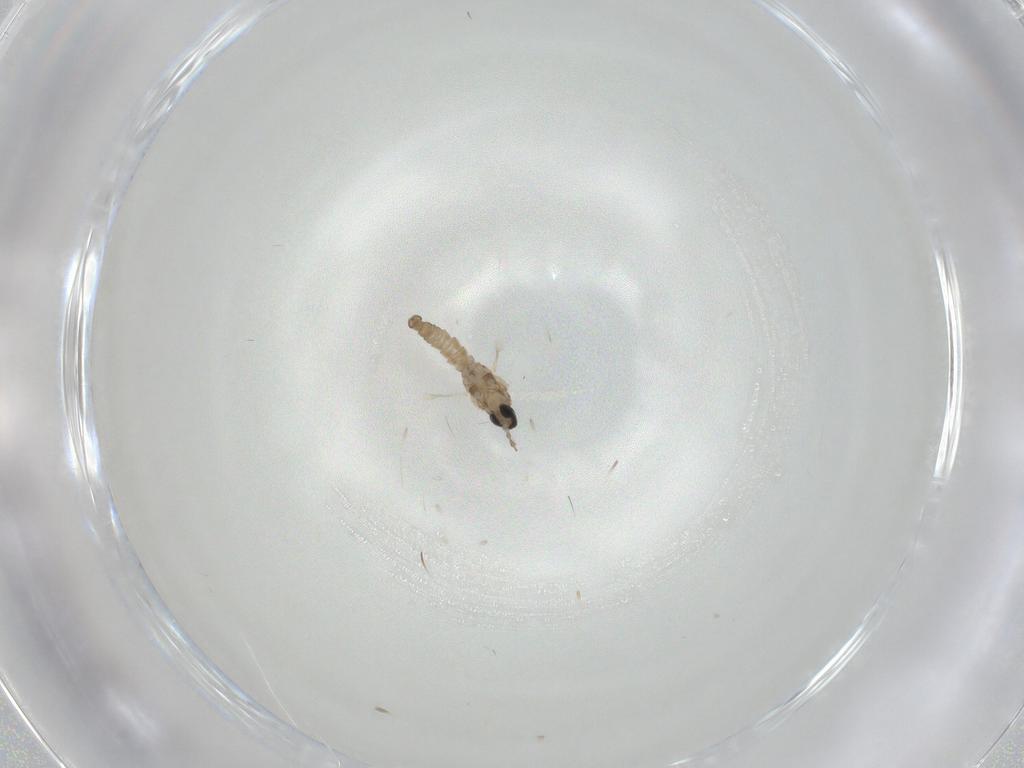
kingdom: Animalia
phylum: Arthropoda
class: Insecta
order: Diptera
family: Cecidomyiidae
